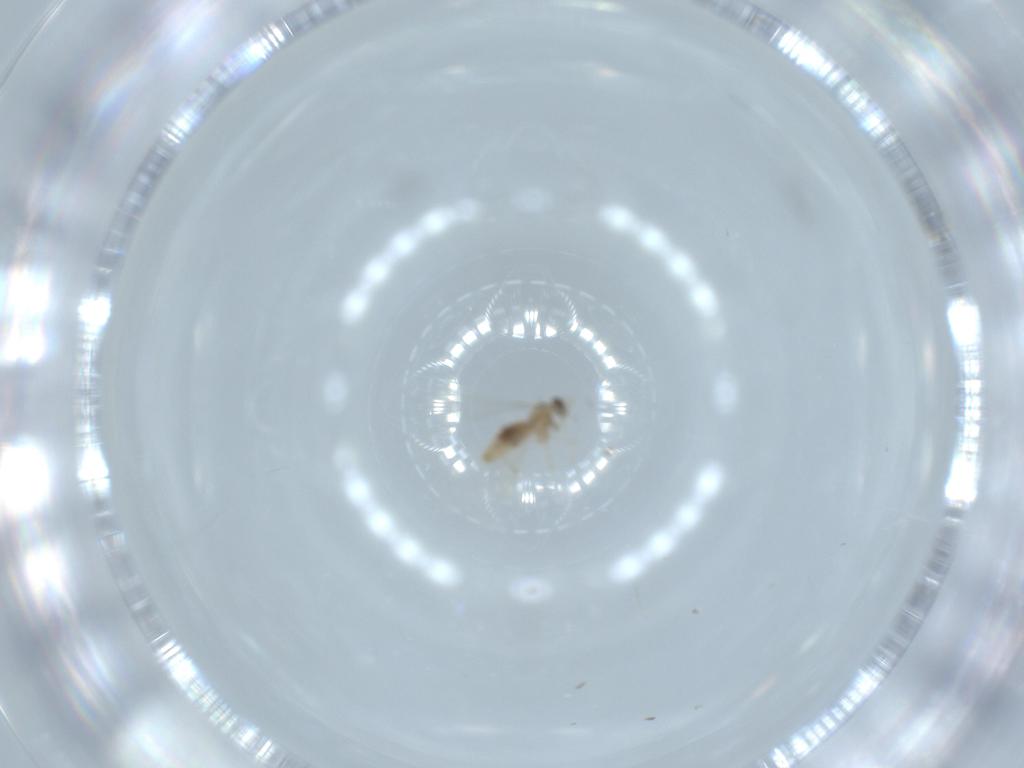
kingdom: Animalia
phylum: Arthropoda
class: Insecta
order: Diptera
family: Cecidomyiidae
